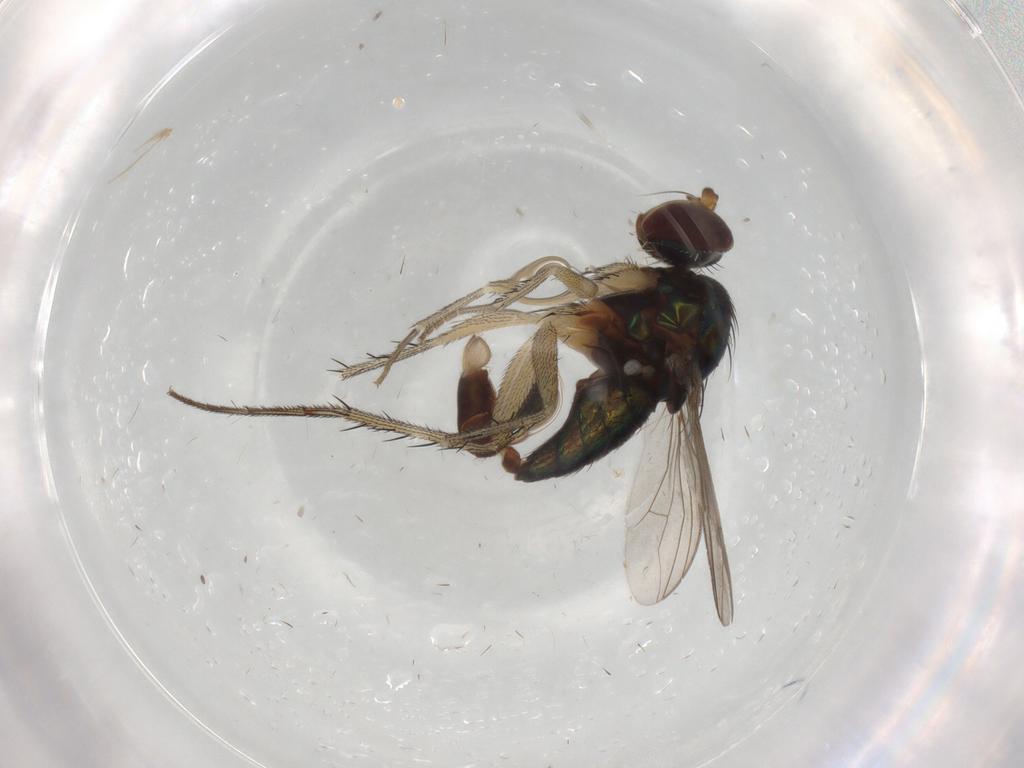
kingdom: Animalia
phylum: Arthropoda
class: Insecta
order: Diptera
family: Dolichopodidae
